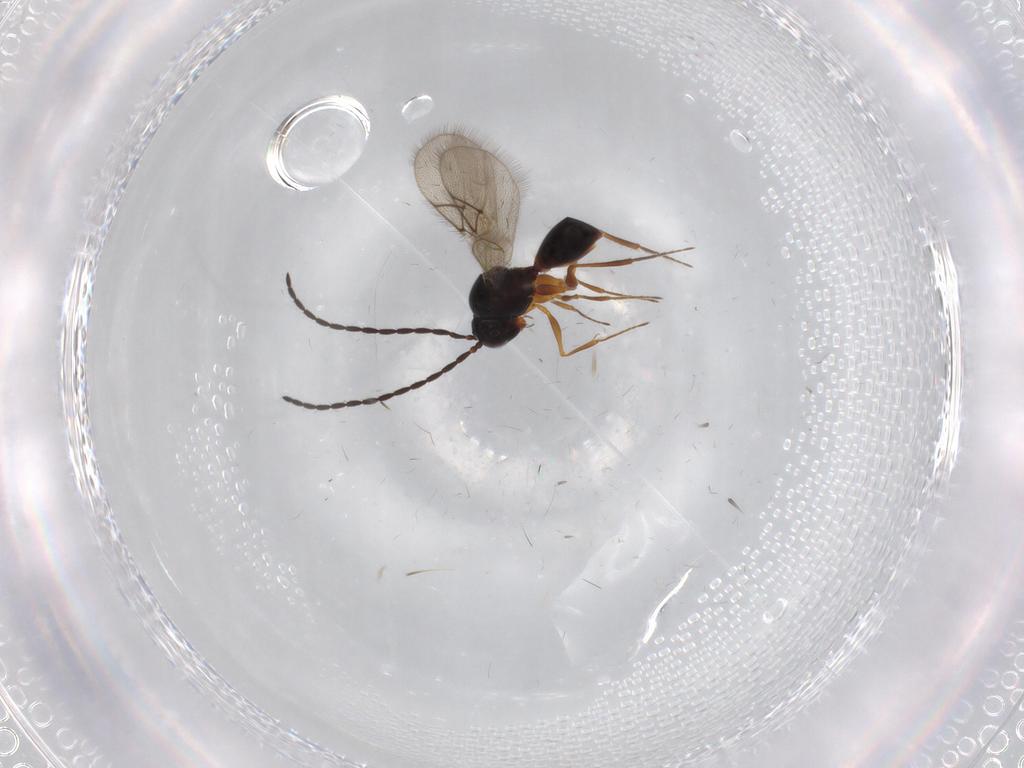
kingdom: Animalia
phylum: Arthropoda
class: Insecta
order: Hymenoptera
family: Figitidae
